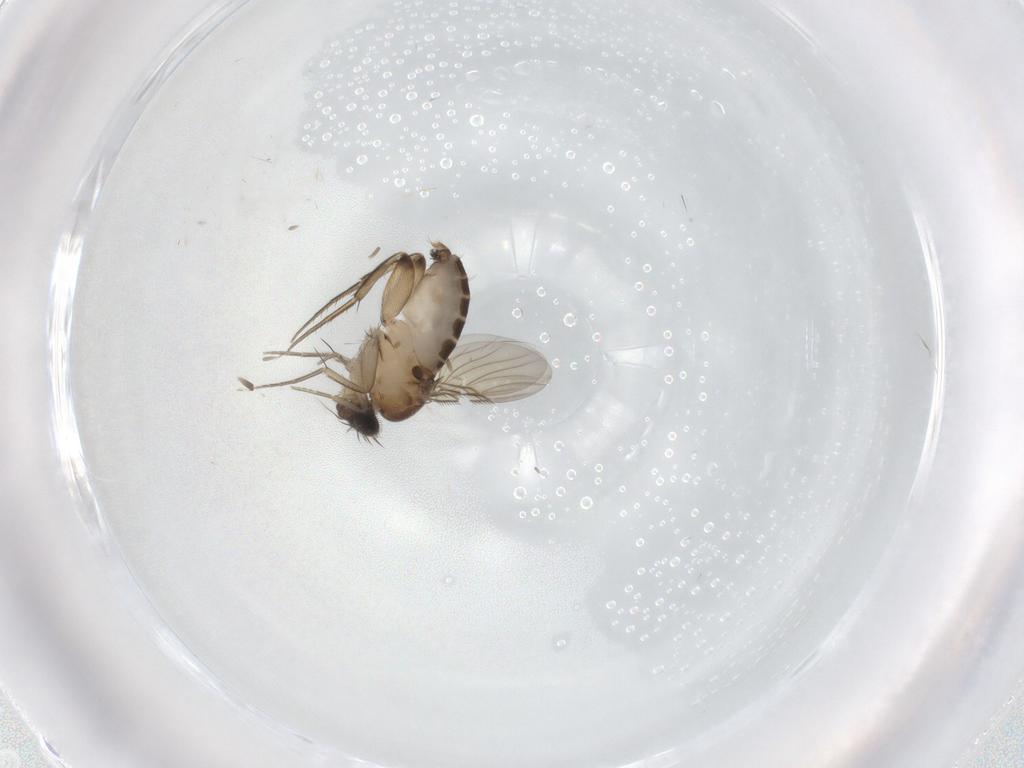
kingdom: Animalia
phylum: Arthropoda
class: Insecta
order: Diptera
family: Phoridae
